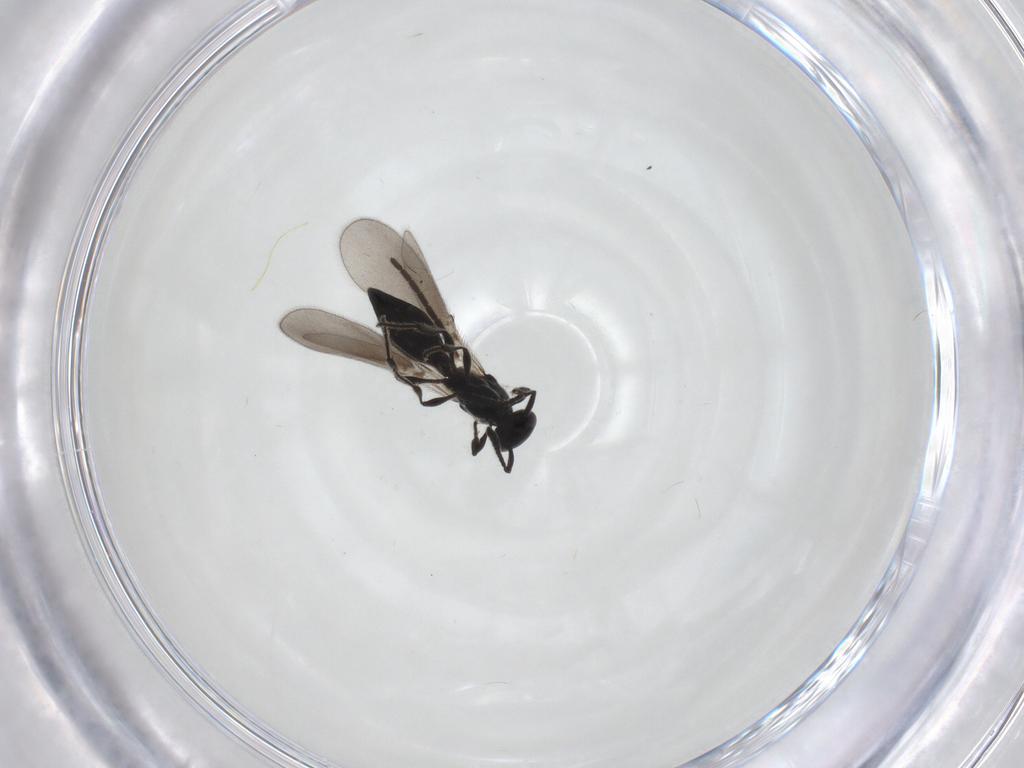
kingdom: Animalia
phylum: Arthropoda
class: Insecta
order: Hymenoptera
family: Platygastridae
